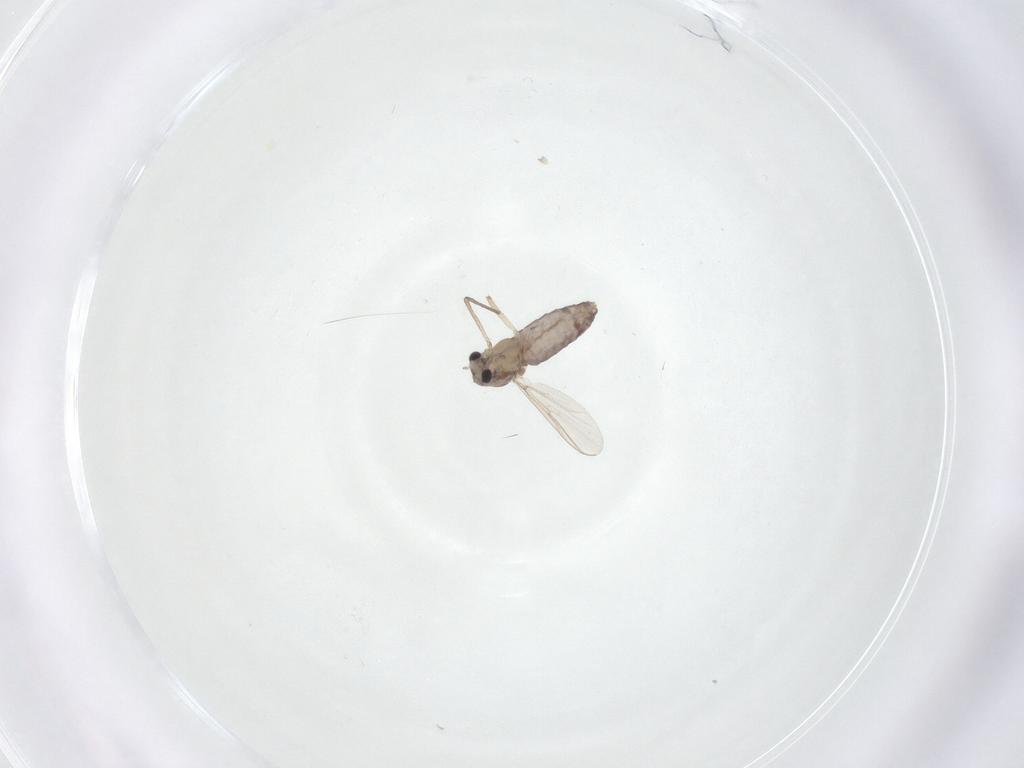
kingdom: Animalia
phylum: Arthropoda
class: Insecta
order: Diptera
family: Chironomidae
